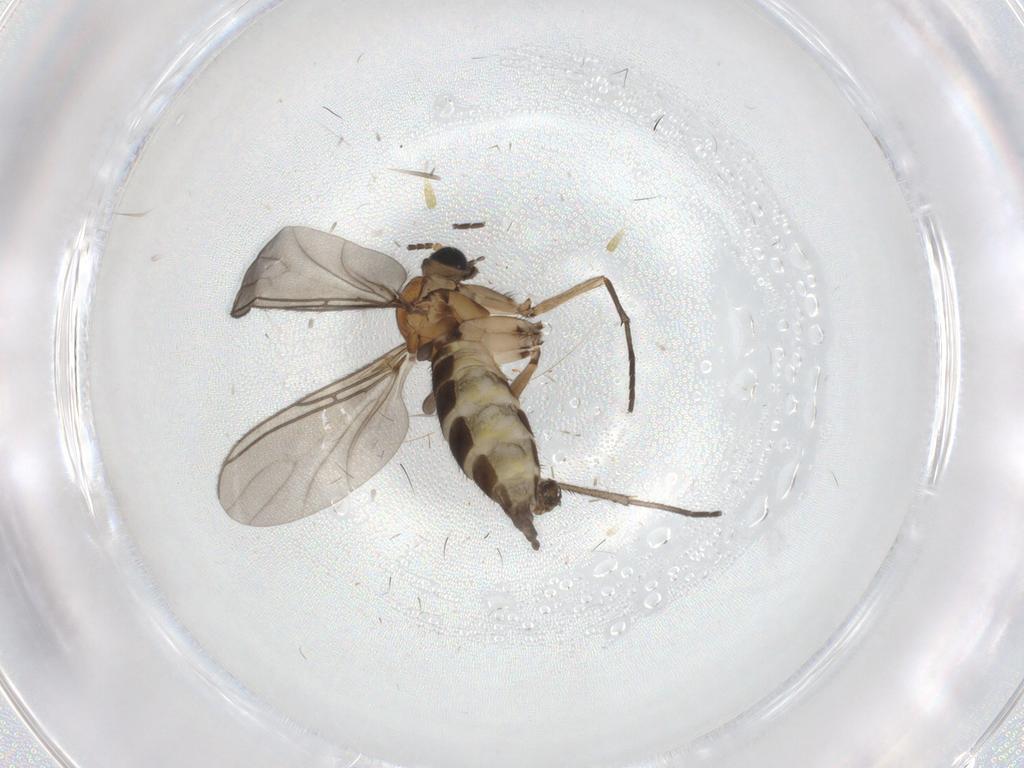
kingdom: Animalia
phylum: Arthropoda
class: Insecta
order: Diptera
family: Sciaridae
